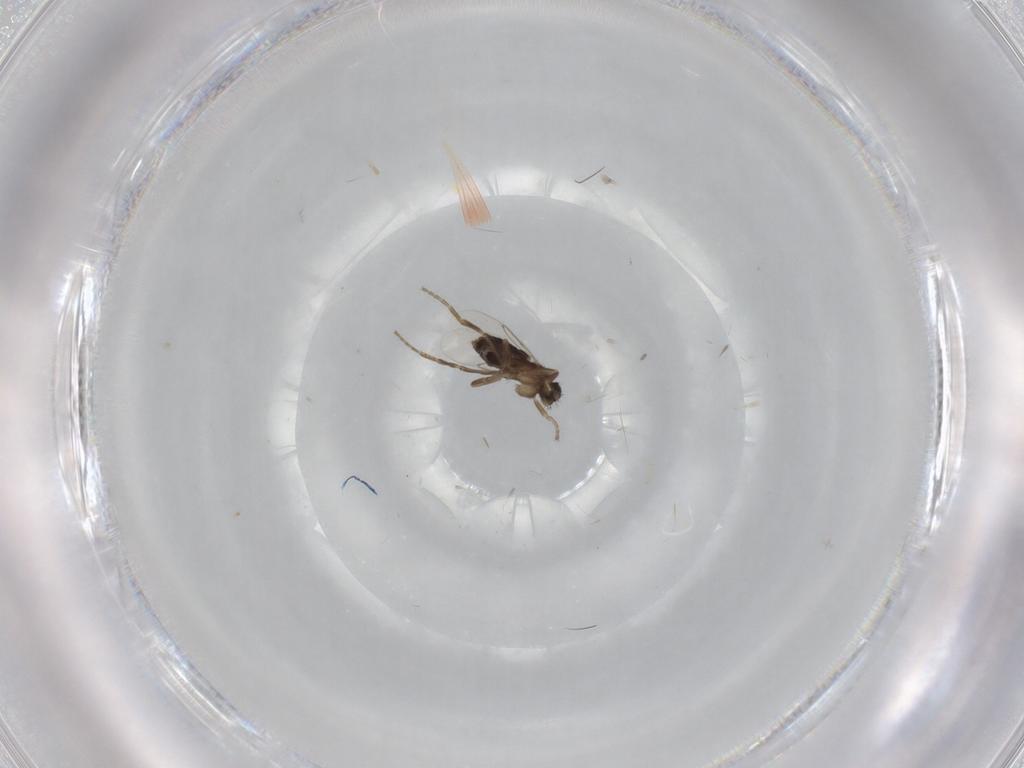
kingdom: Animalia
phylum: Arthropoda
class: Insecta
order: Diptera
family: Phoridae
